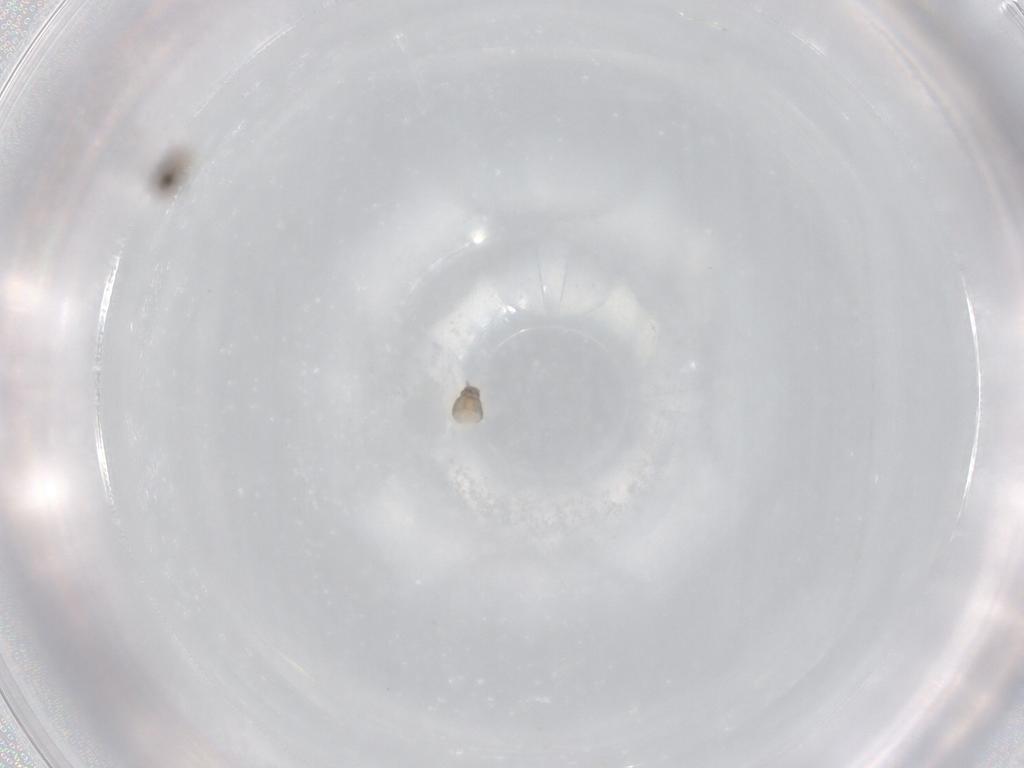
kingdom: Animalia
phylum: Arthropoda
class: Insecta
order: Diptera
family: Cecidomyiidae
